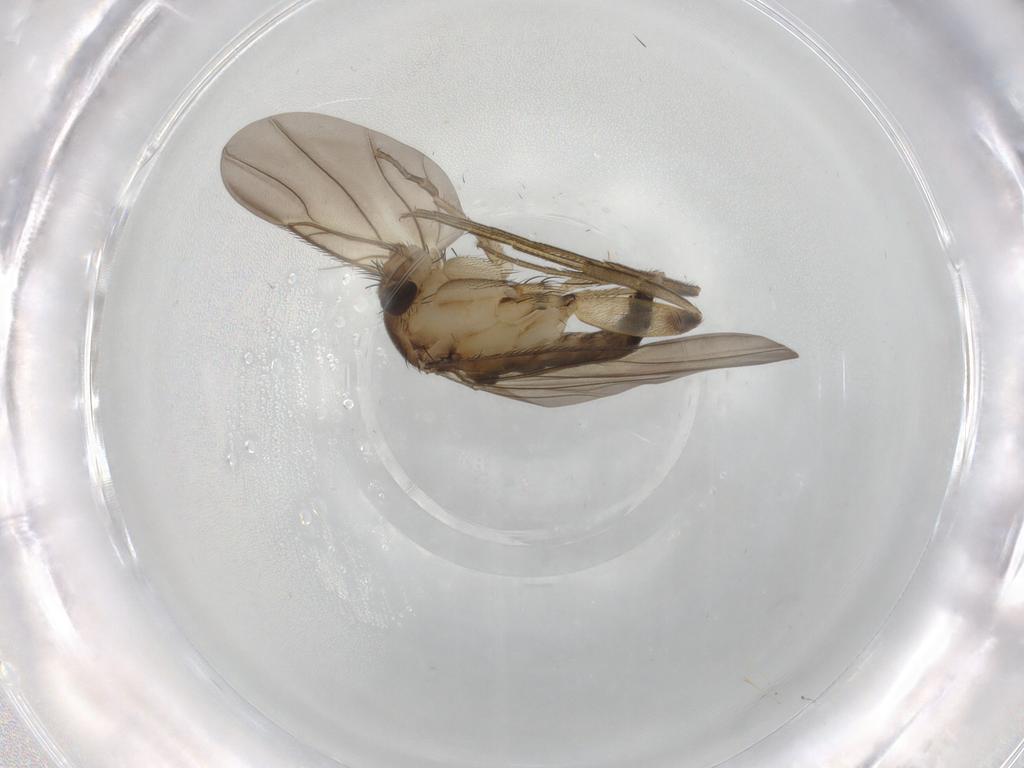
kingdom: Animalia
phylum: Arthropoda
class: Insecta
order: Diptera
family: Phoridae
